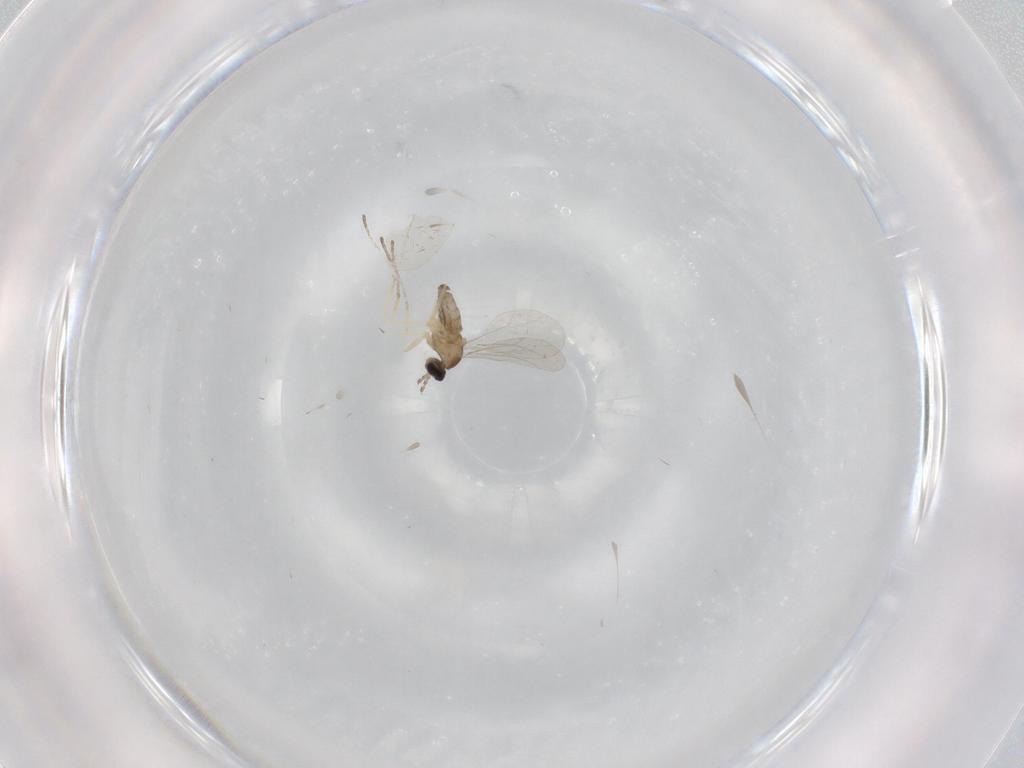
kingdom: Animalia
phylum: Arthropoda
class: Insecta
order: Diptera
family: Cecidomyiidae
